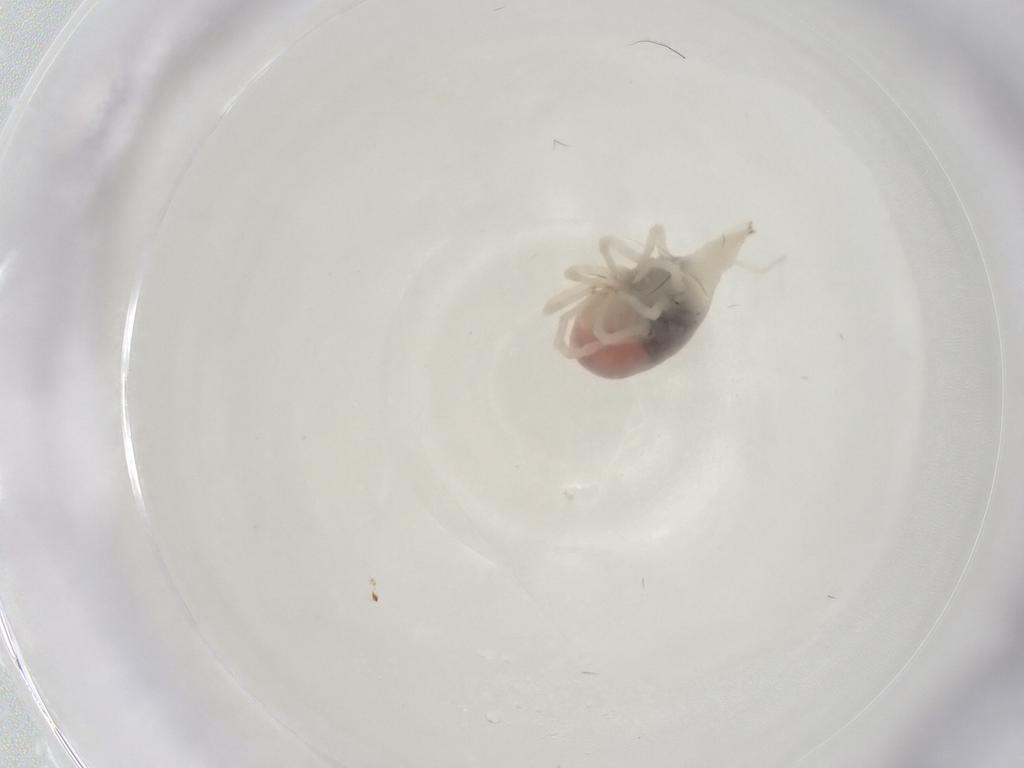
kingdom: Animalia
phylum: Arthropoda
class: Arachnida
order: Trombidiformes
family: Bdellidae
